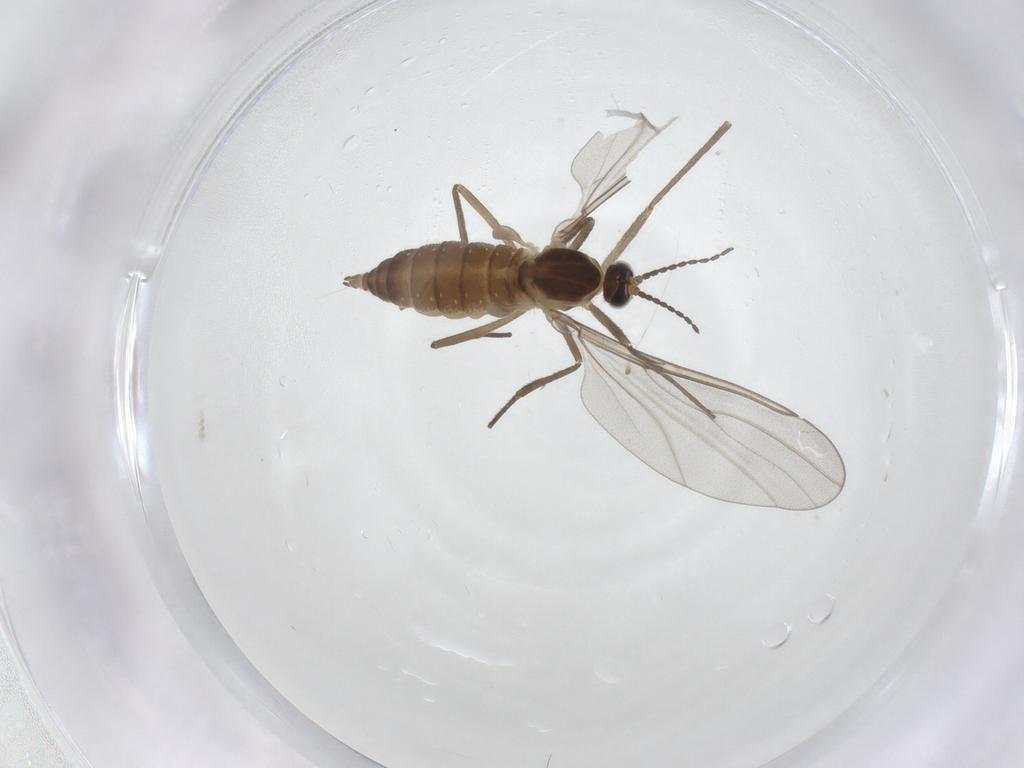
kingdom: Animalia
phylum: Arthropoda
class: Insecta
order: Diptera
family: Cecidomyiidae
